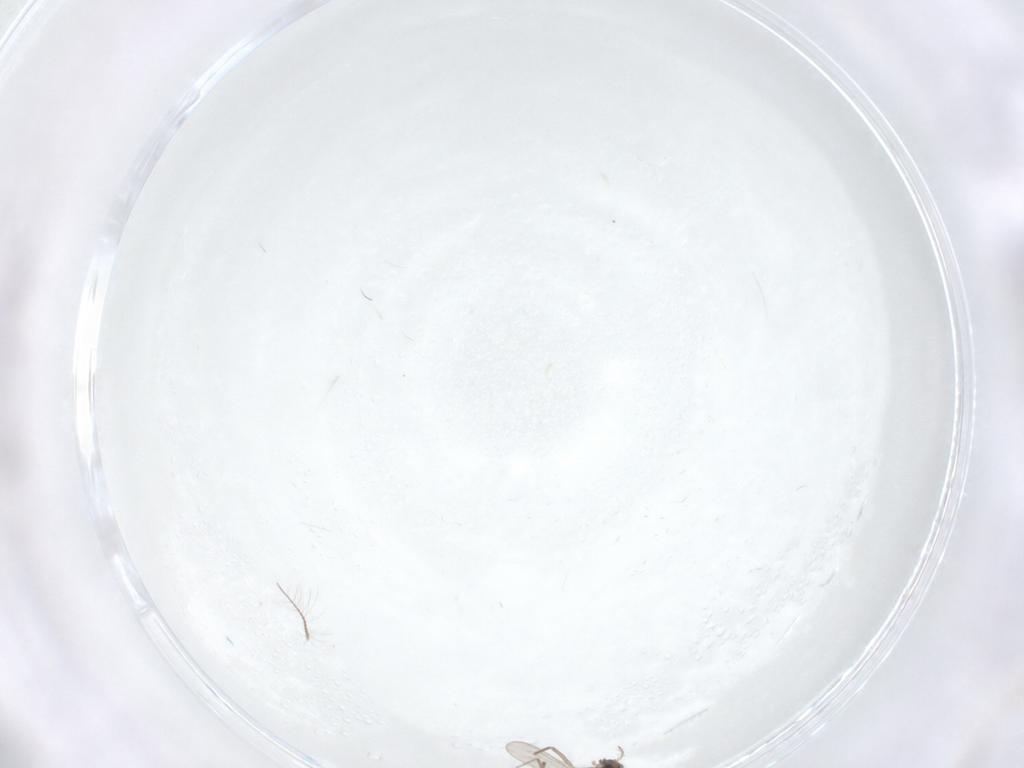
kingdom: Animalia
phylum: Arthropoda
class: Insecta
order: Diptera
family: Chironomidae
